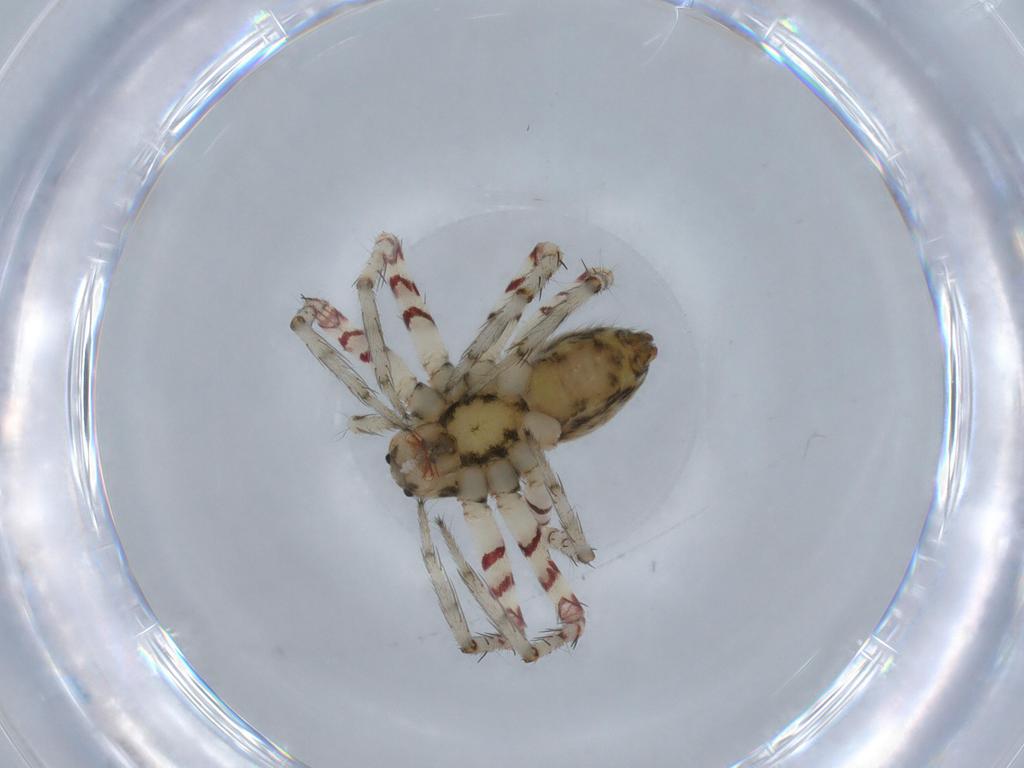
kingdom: Animalia
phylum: Arthropoda
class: Arachnida
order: Araneae
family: Trechaleidae
